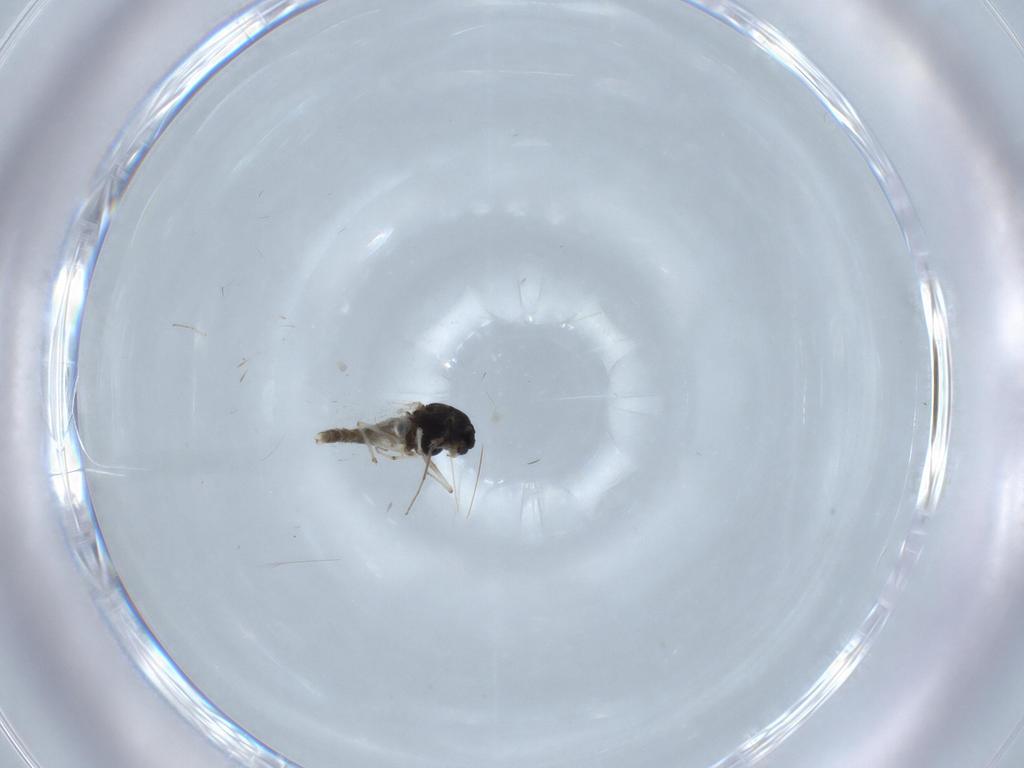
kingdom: Animalia
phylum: Arthropoda
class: Insecta
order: Diptera
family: Chironomidae
